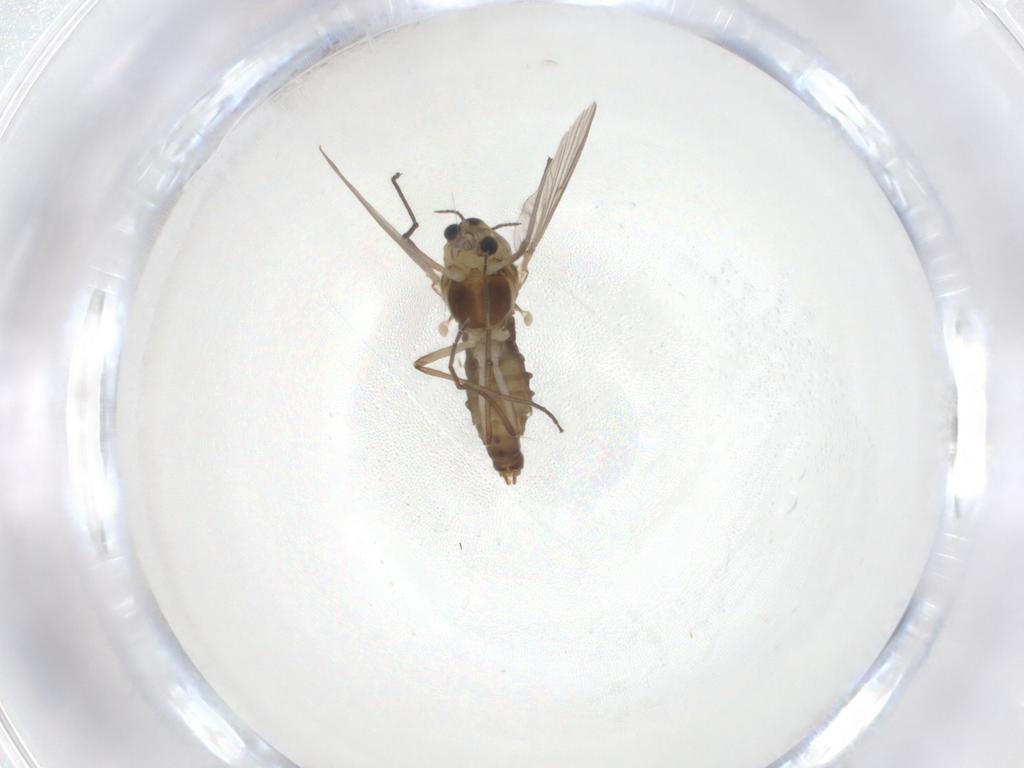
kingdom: Animalia
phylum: Arthropoda
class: Insecta
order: Diptera
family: Chironomidae
